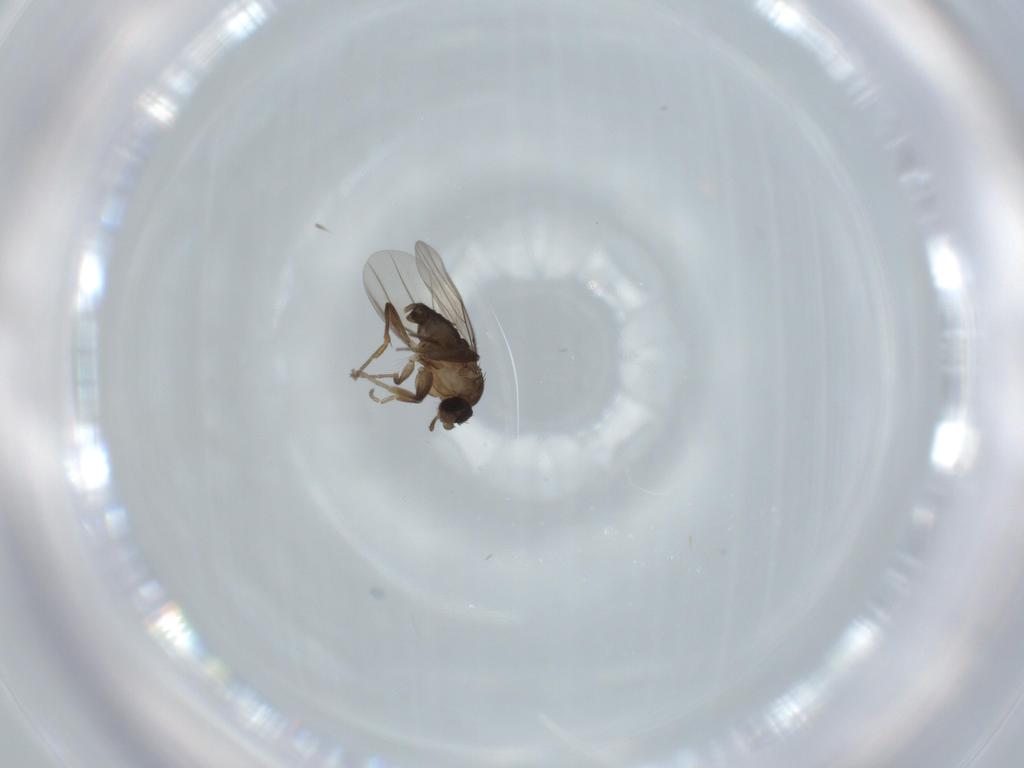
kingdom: Animalia
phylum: Arthropoda
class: Insecta
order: Diptera
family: Phoridae
